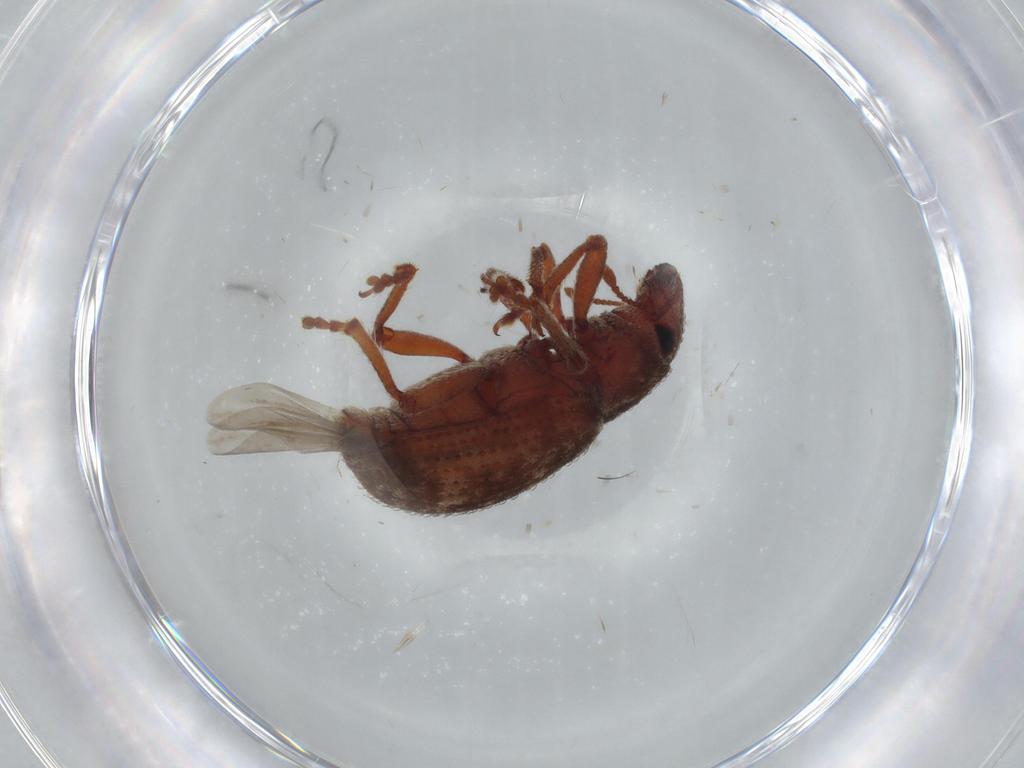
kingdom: Animalia
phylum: Arthropoda
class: Insecta
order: Coleoptera
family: Curculionidae
